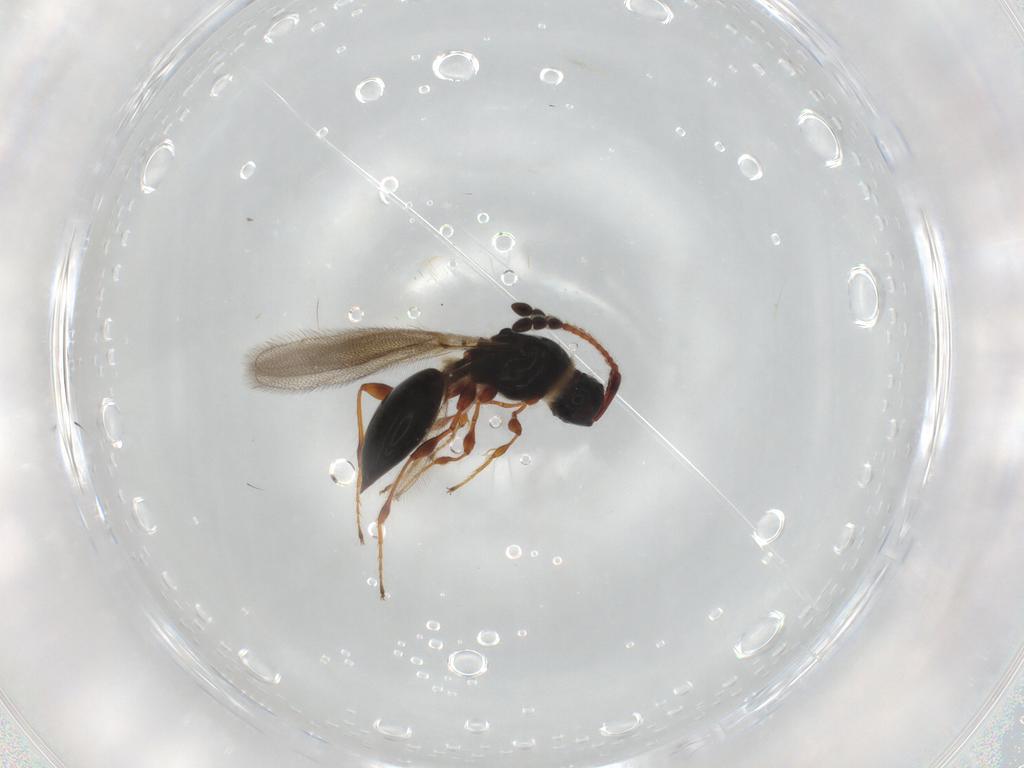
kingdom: Animalia
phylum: Arthropoda
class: Insecta
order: Hymenoptera
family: Diapriidae
